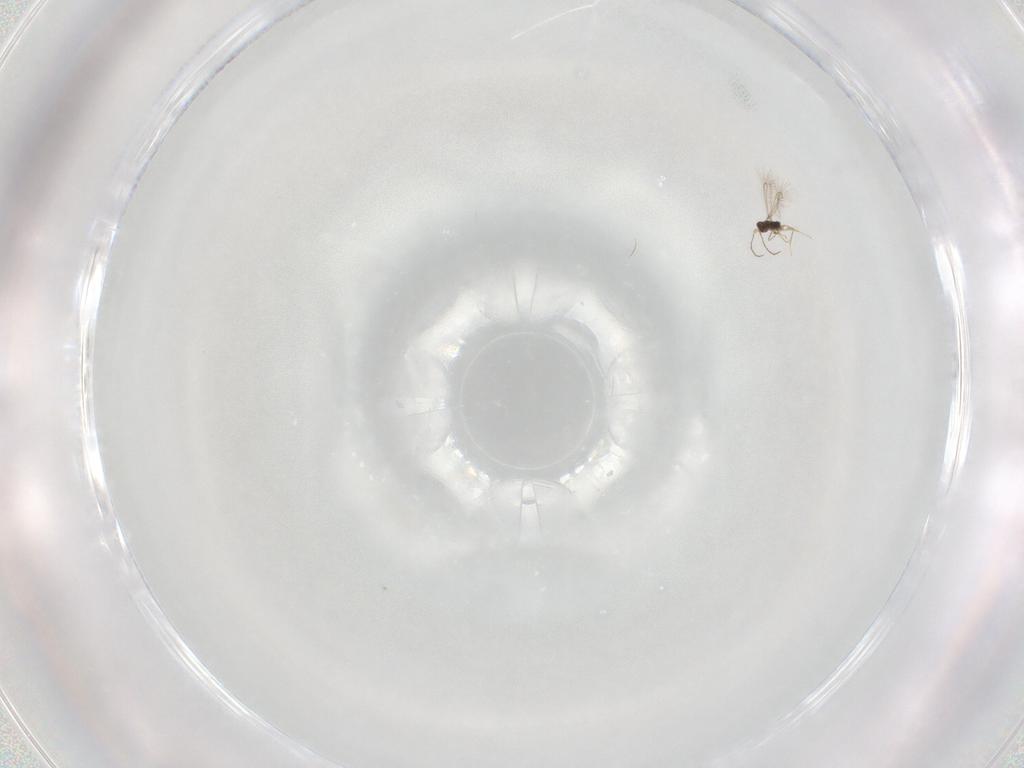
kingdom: Animalia
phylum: Arthropoda
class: Insecta
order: Hymenoptera
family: Mymaridae
